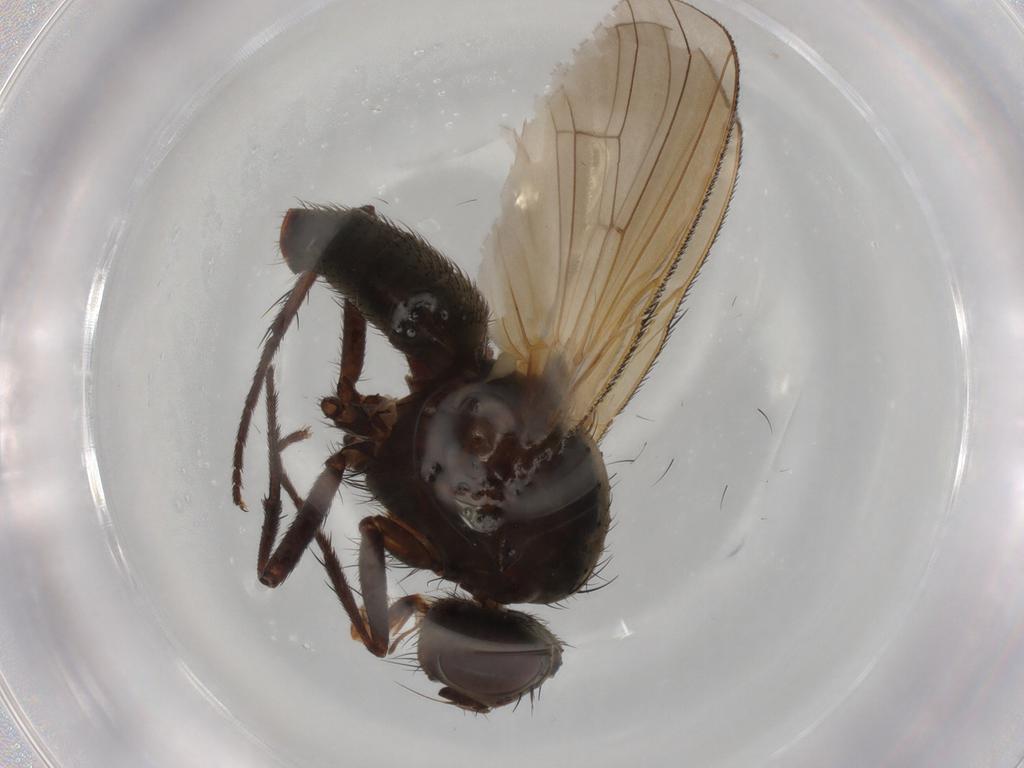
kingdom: Animalia
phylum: Arthropoda
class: Insecta
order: Diptera
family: Anthomyiidae
